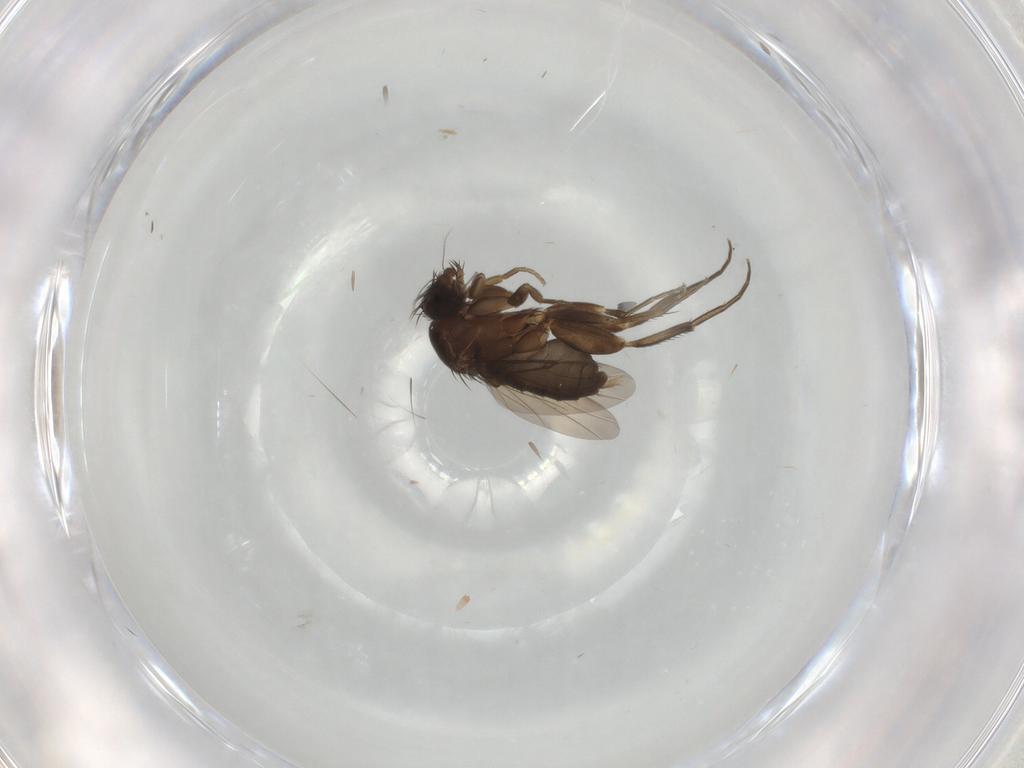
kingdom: Animalia
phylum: Arthropoda
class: Insecta
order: Diptera
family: Phoridae
